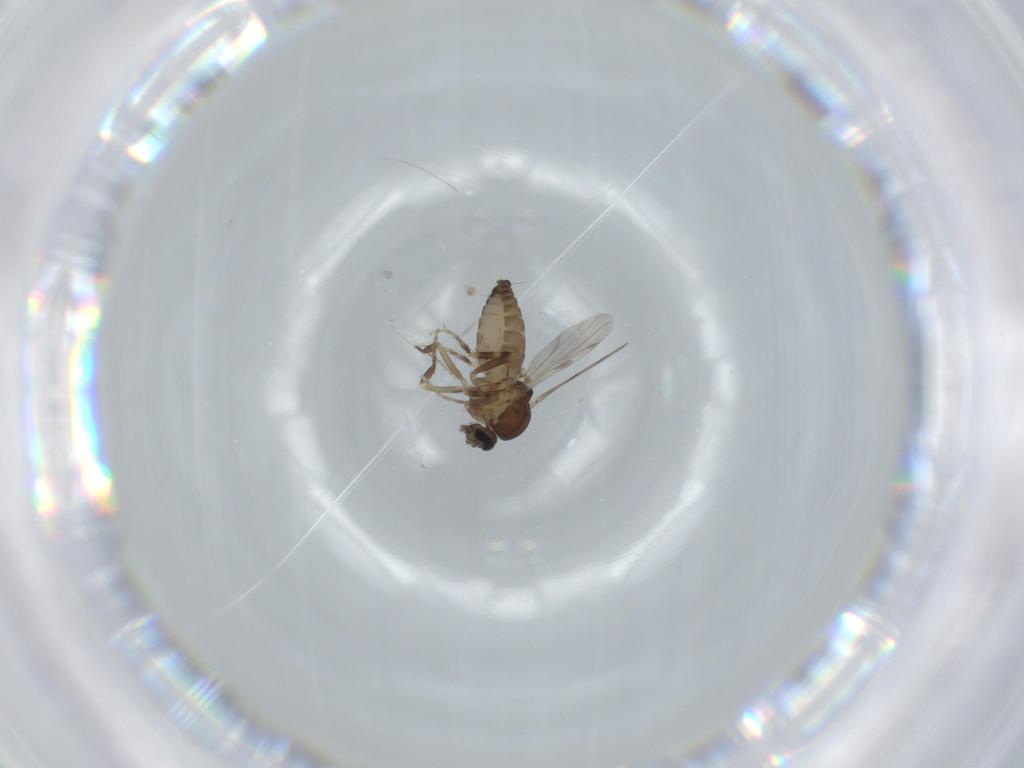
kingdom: Animalia
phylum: Arthropoda
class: Insecta
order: Diptera
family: Ceratopogonidae
